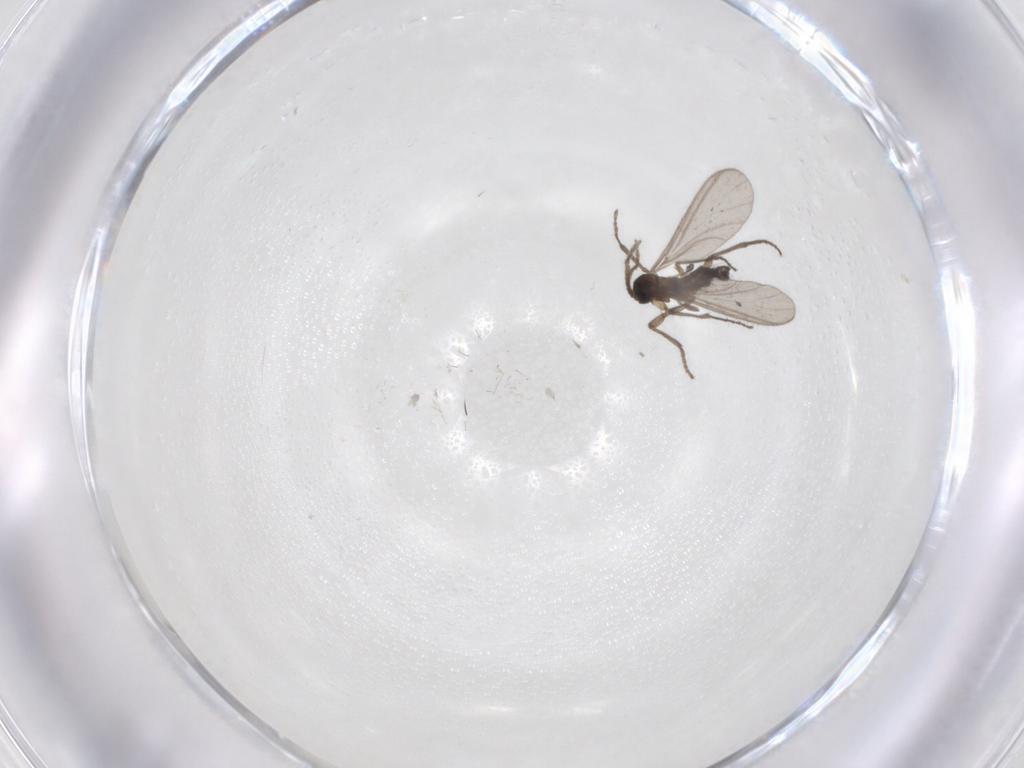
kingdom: Animalia
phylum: Arthropoda
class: Insecta
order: Diptera
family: Sciaridae
